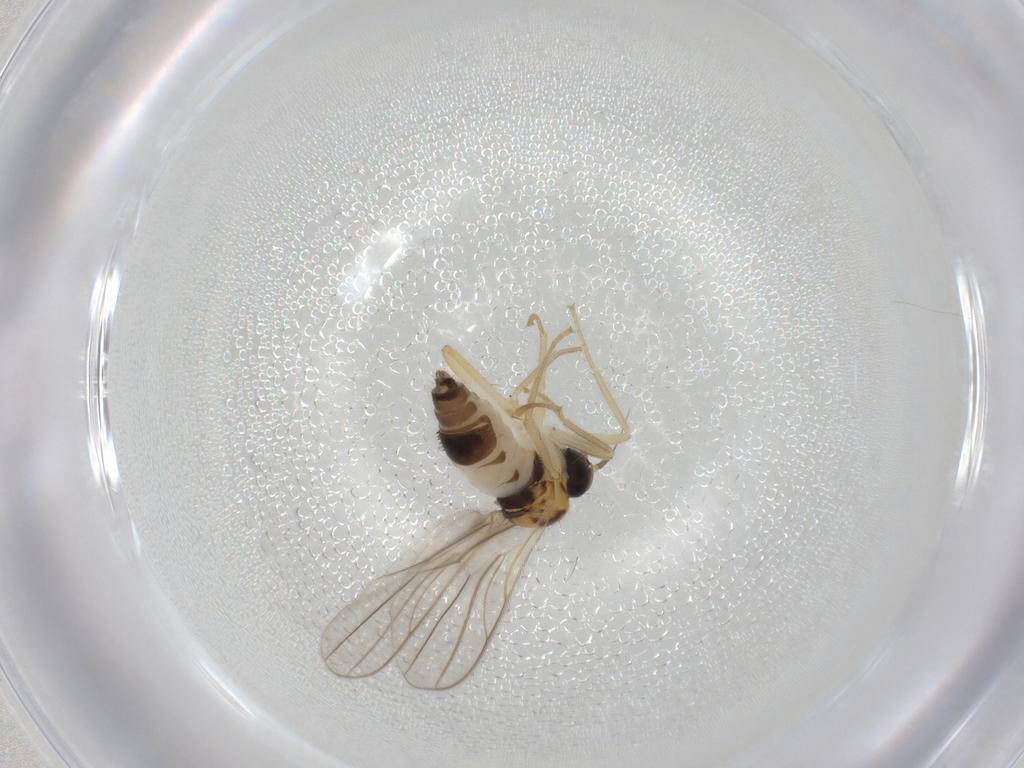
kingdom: Animalia
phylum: Arthropoda
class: Insecta
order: Diptera
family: Hybotidae
